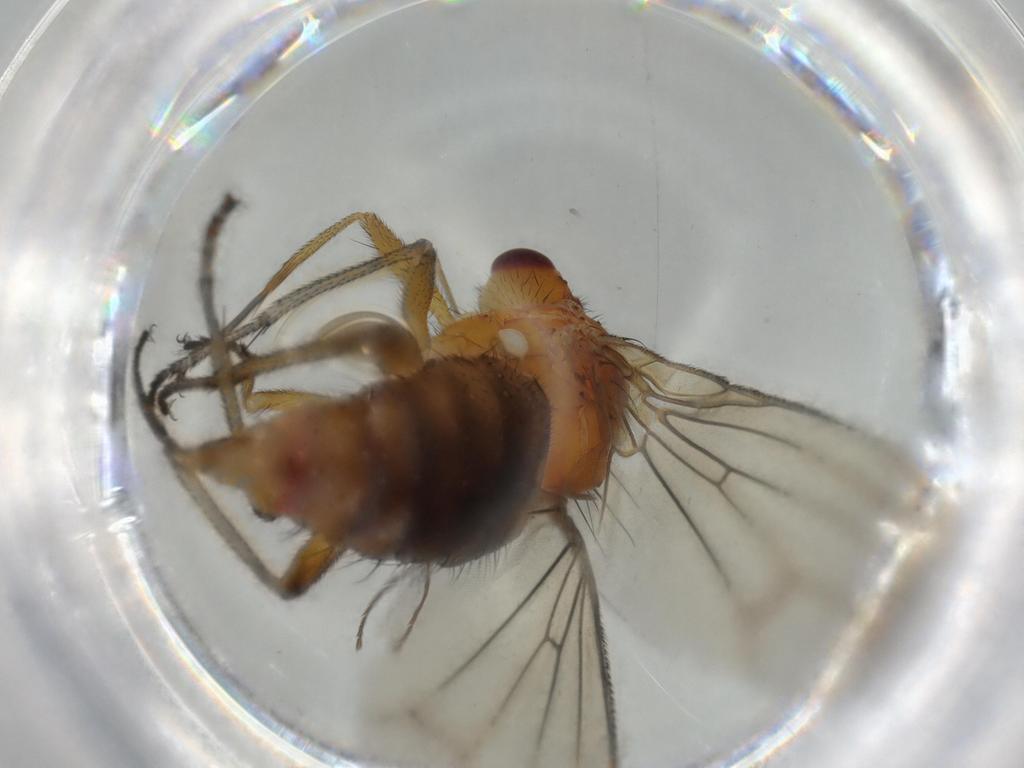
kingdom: Animalia
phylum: Arthropoda
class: Insecta
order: Diptera
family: Heleomyzidae
